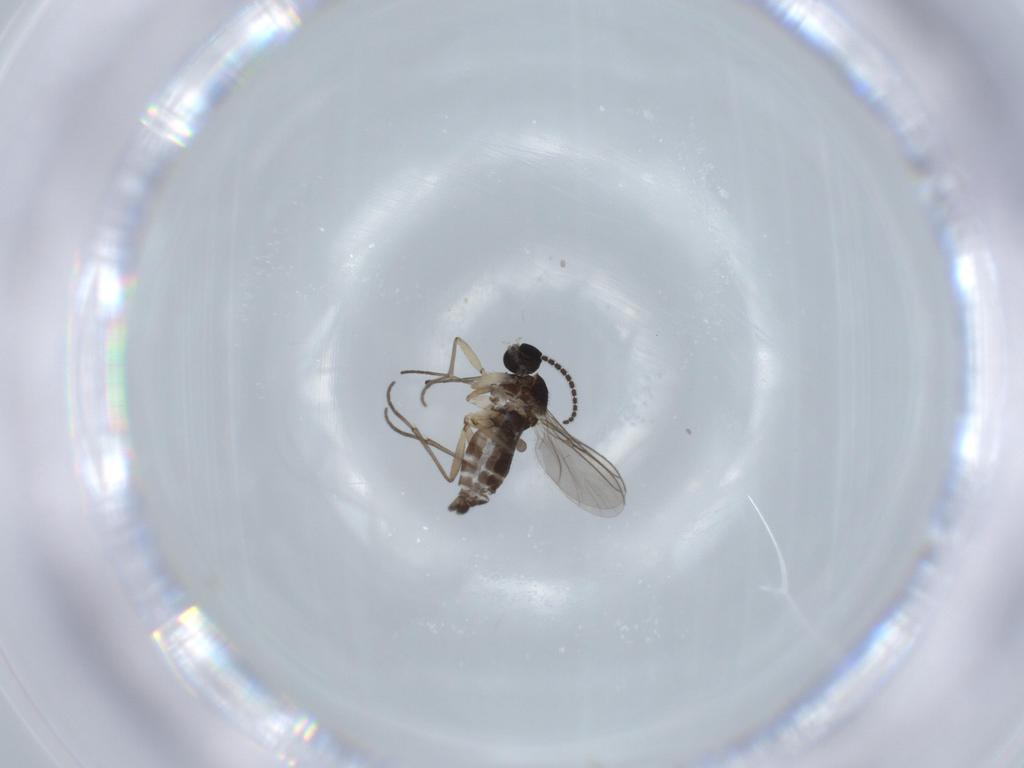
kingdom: Animalia
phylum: Arthropoda
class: Insecta
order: Diptera
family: Sciaridae
